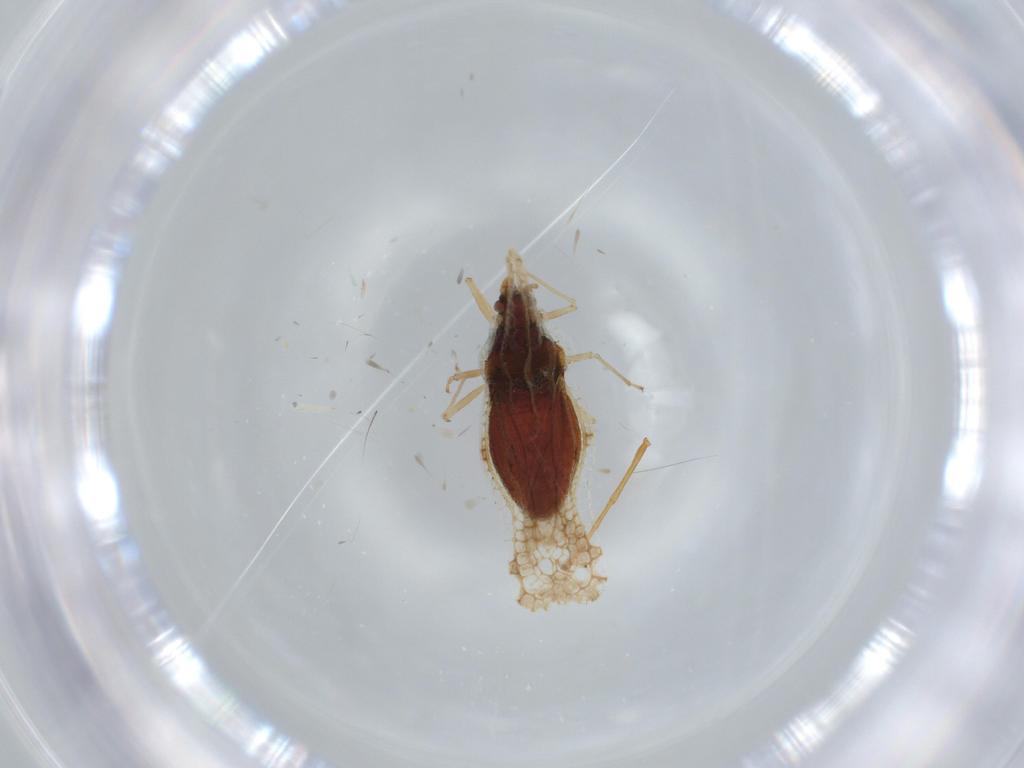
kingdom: Animalia
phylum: Arthropoda
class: Insecta
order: Hemiptera
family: Tingidae
